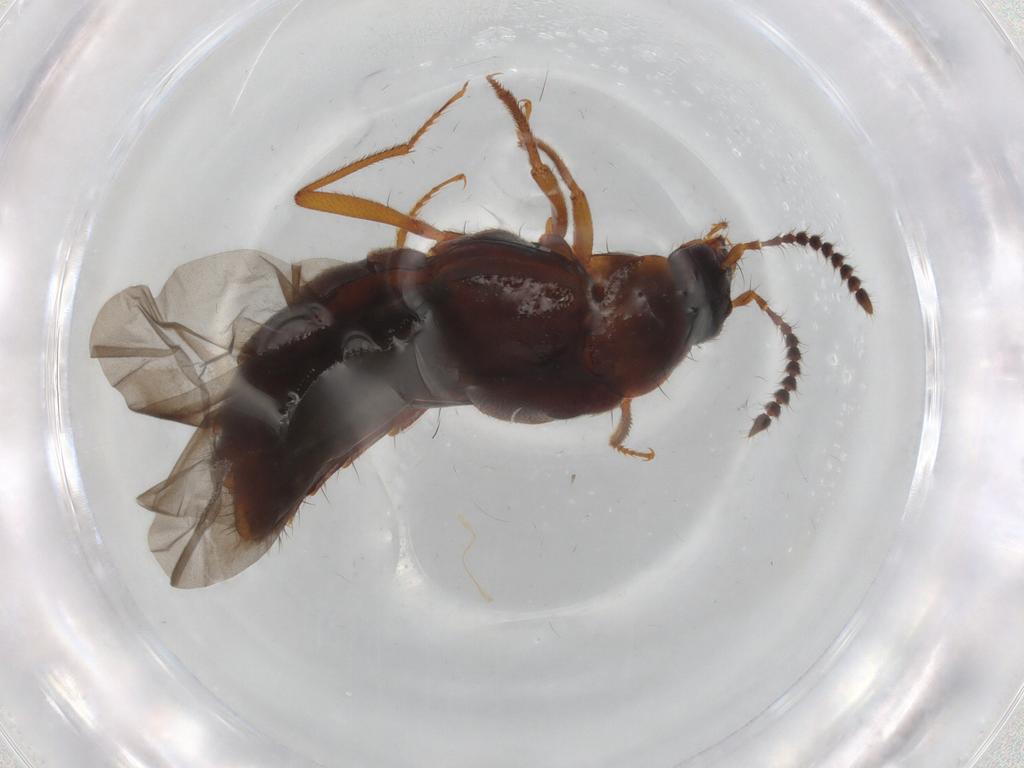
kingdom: Animalia
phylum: Arthropoda
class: Insecta
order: Coleoptera
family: Staphylinidae
